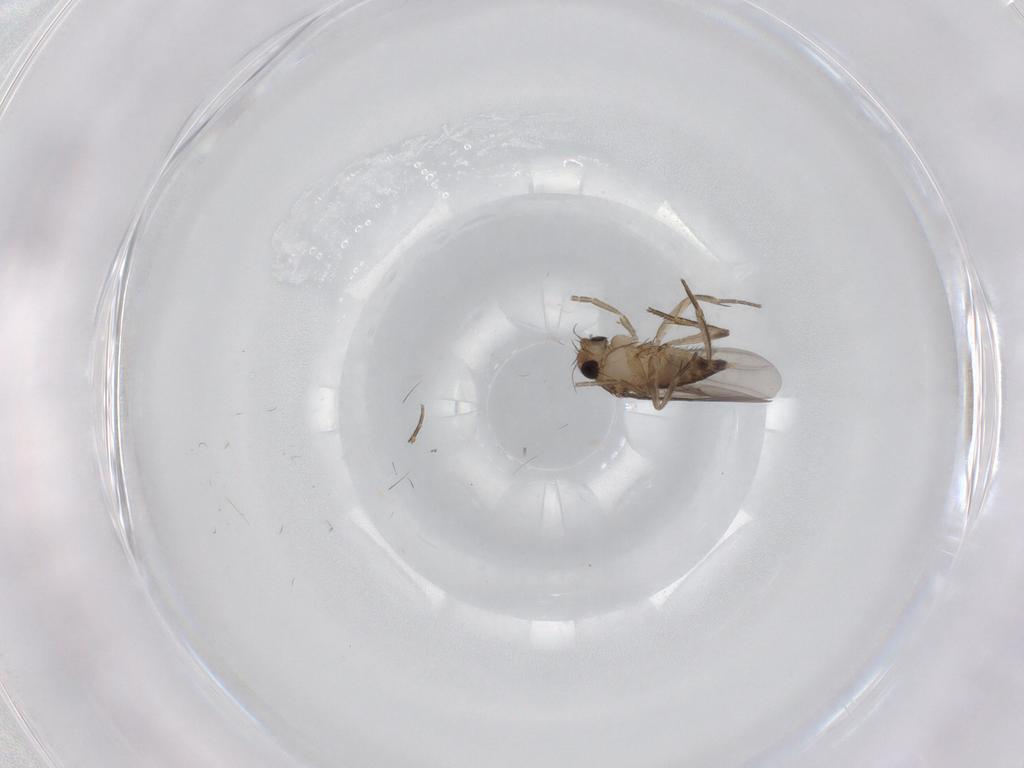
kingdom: Animalia
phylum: Arthropoda
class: Insecta
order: Diptera
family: Phoridae
